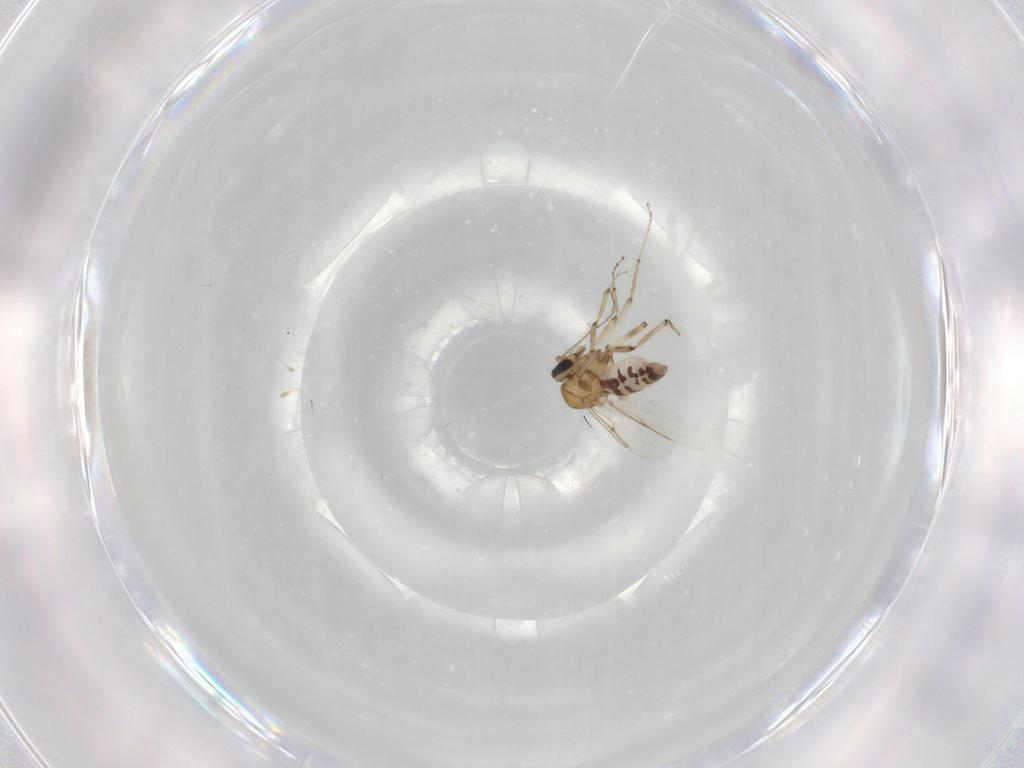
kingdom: Animalia
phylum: Arthropoda
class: Insecta
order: Diptera
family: Ceratopogonidae
